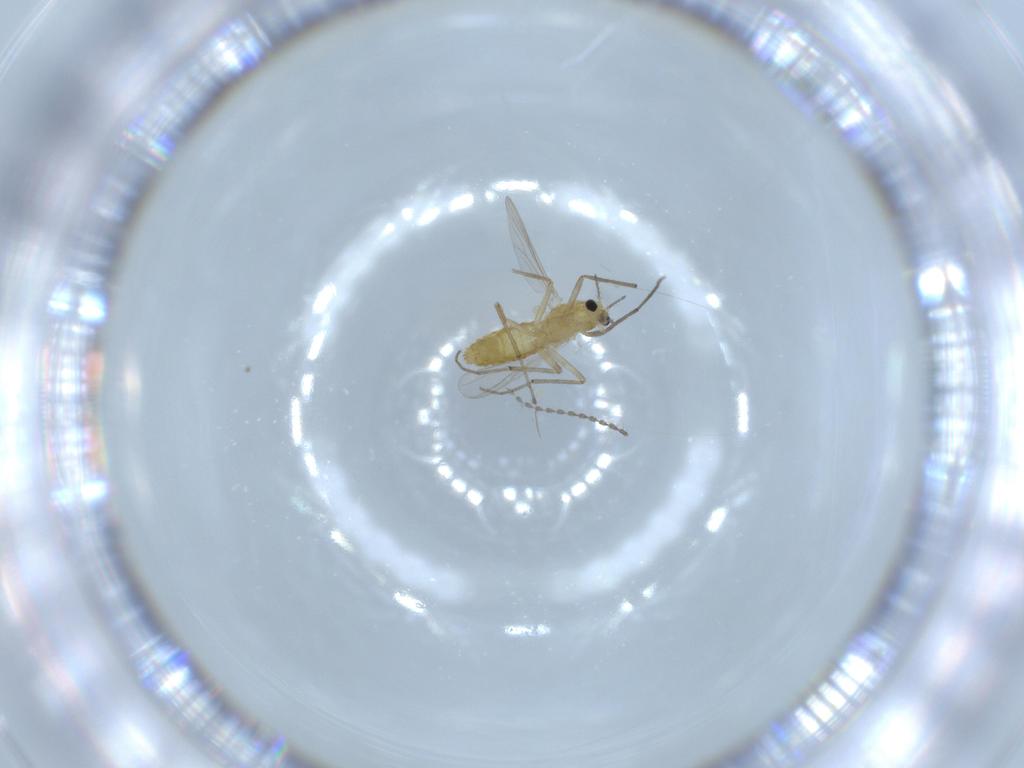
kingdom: Animalia
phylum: Arthropoda
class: Insecta
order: Diptera
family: Chironomidae
